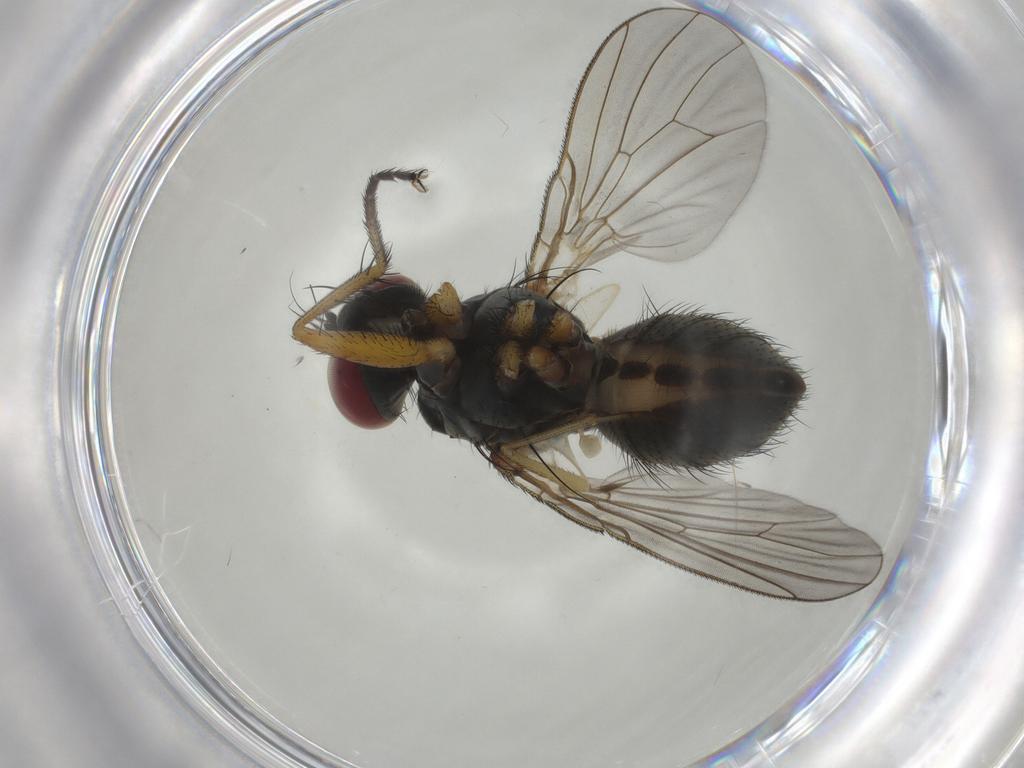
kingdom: Animalia
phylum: Arthropoda
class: Insecta
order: Diptera
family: Muscidae
